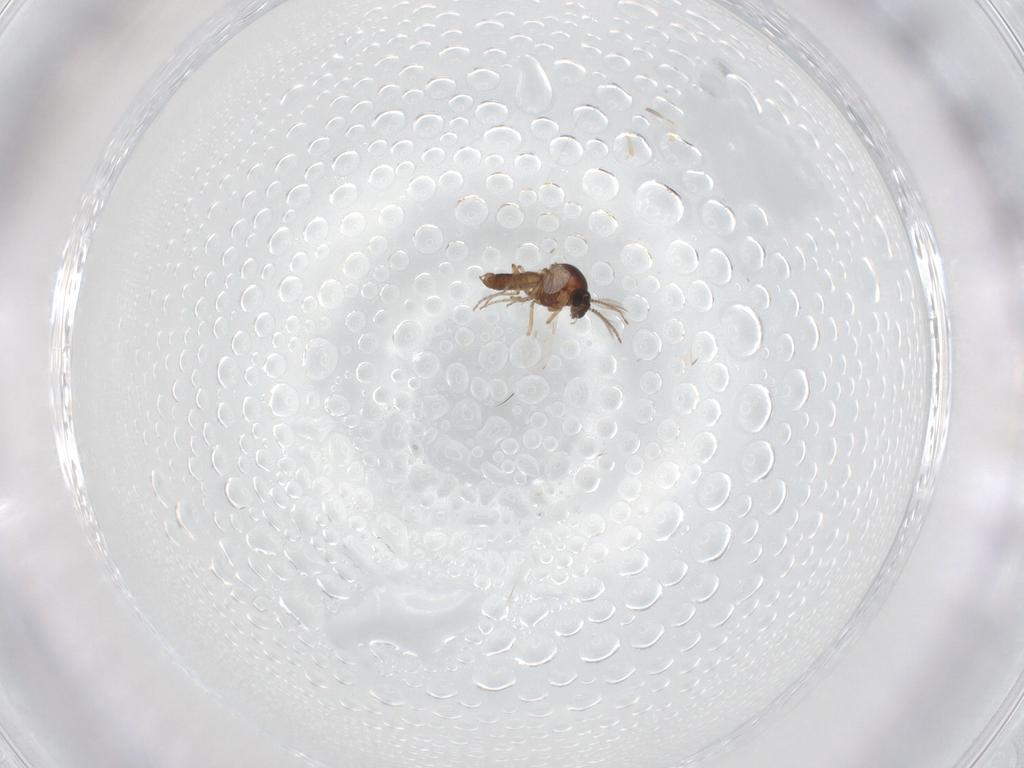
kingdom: Animalia
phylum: Arthropoda
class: Insecta
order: Diptera
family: Ceratopogonidae
